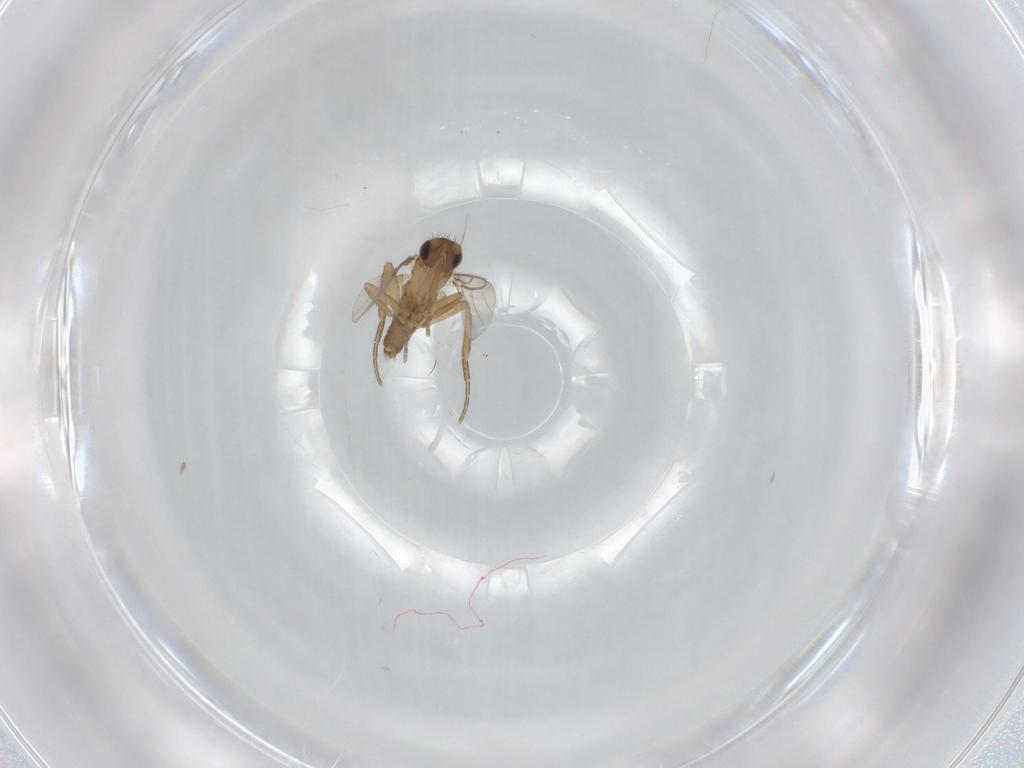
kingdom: Animalia
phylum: Arthropoda
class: Insecta
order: Diptera
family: Phoridae
